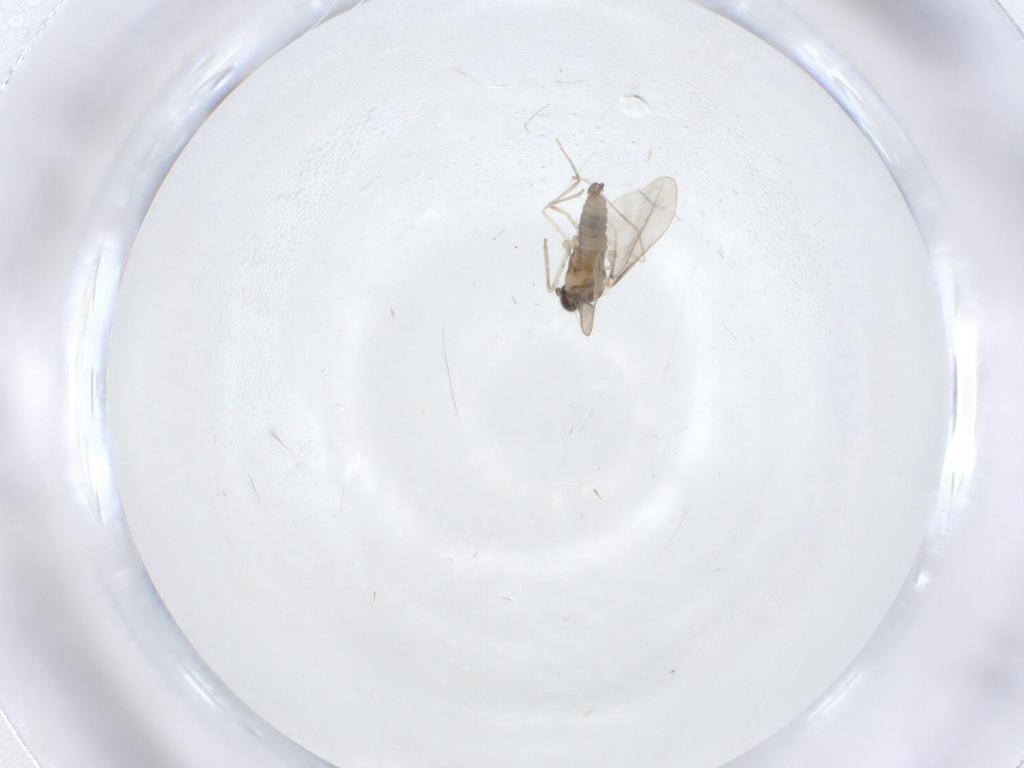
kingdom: Animalia
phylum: Arthropoda
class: Insecta
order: Diptera
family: Cecidomyiidae
